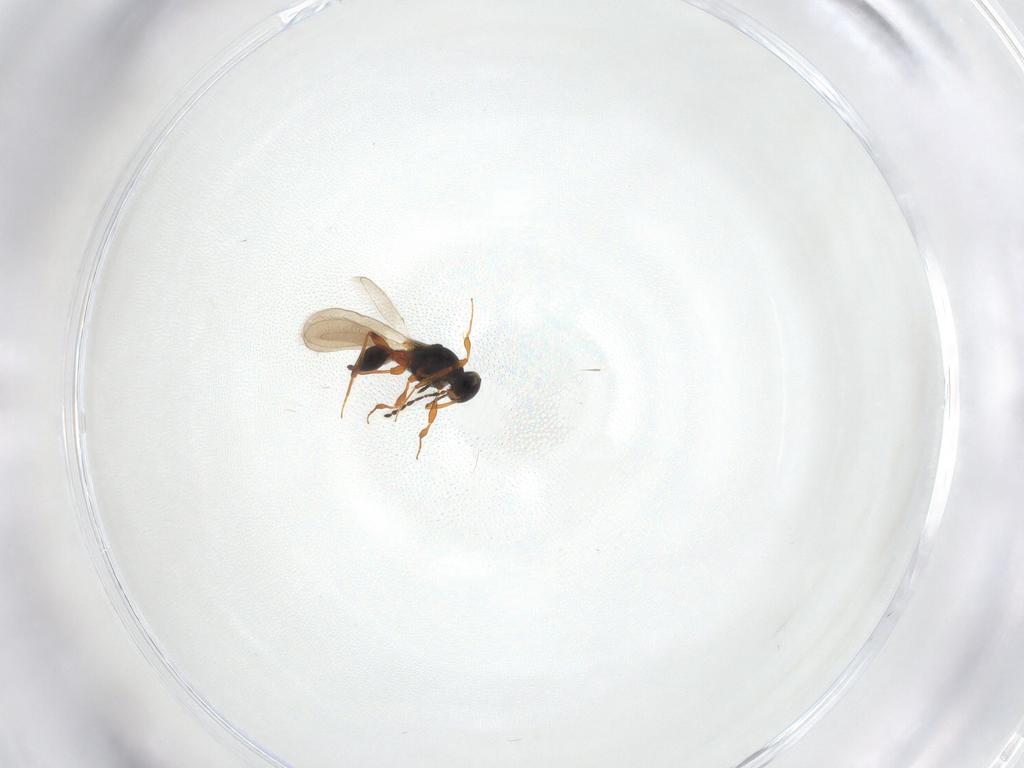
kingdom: Animalia
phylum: Arthropoda
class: Insecta
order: Hymenoptera
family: Platygastridae
